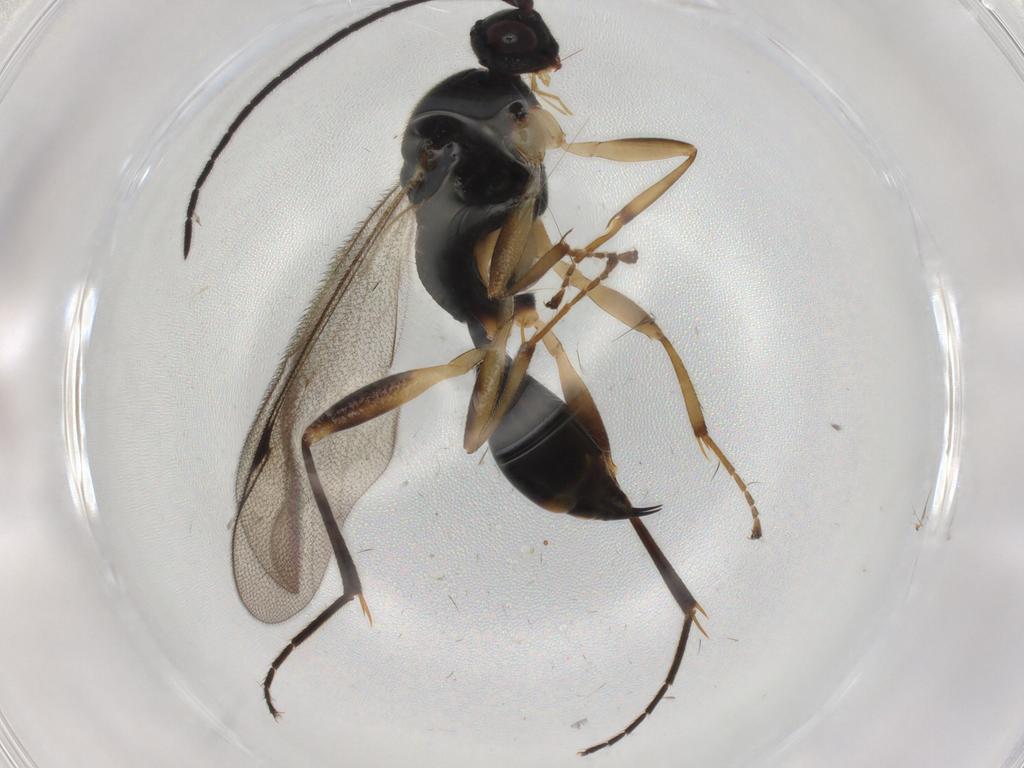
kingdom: Animalia
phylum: Arthropoda
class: Insecta
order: Hymenoptera
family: Proctotrupidae
